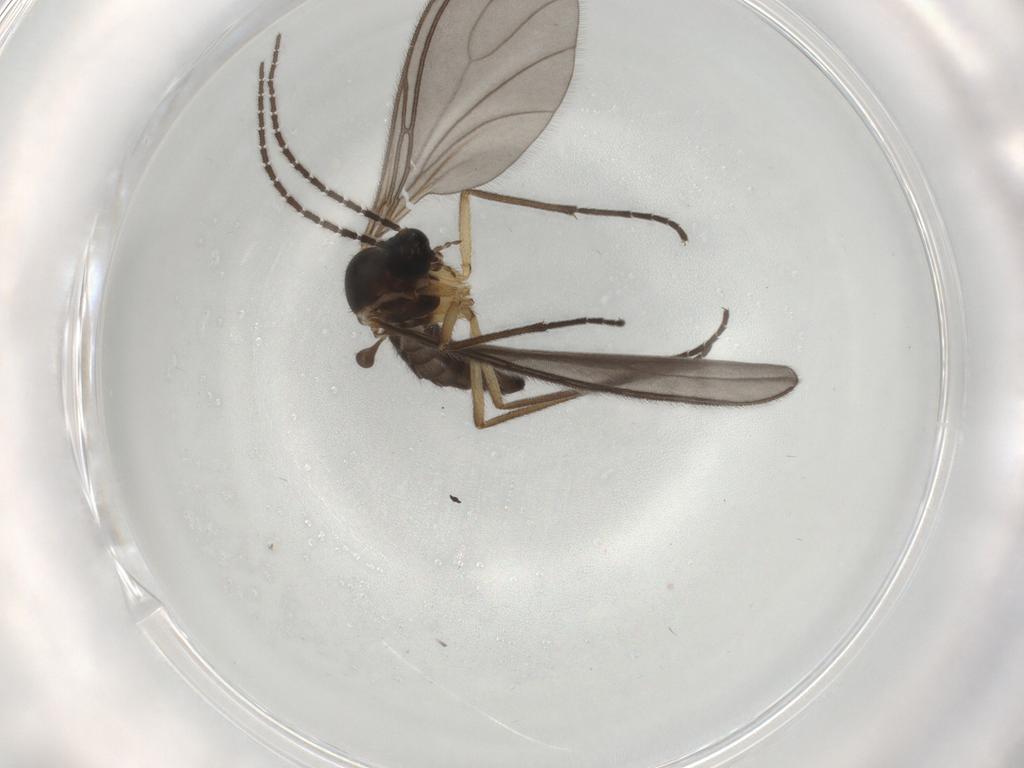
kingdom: Animalia
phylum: Arthropoda
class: Insecta
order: Diptera
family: Sciaridae
